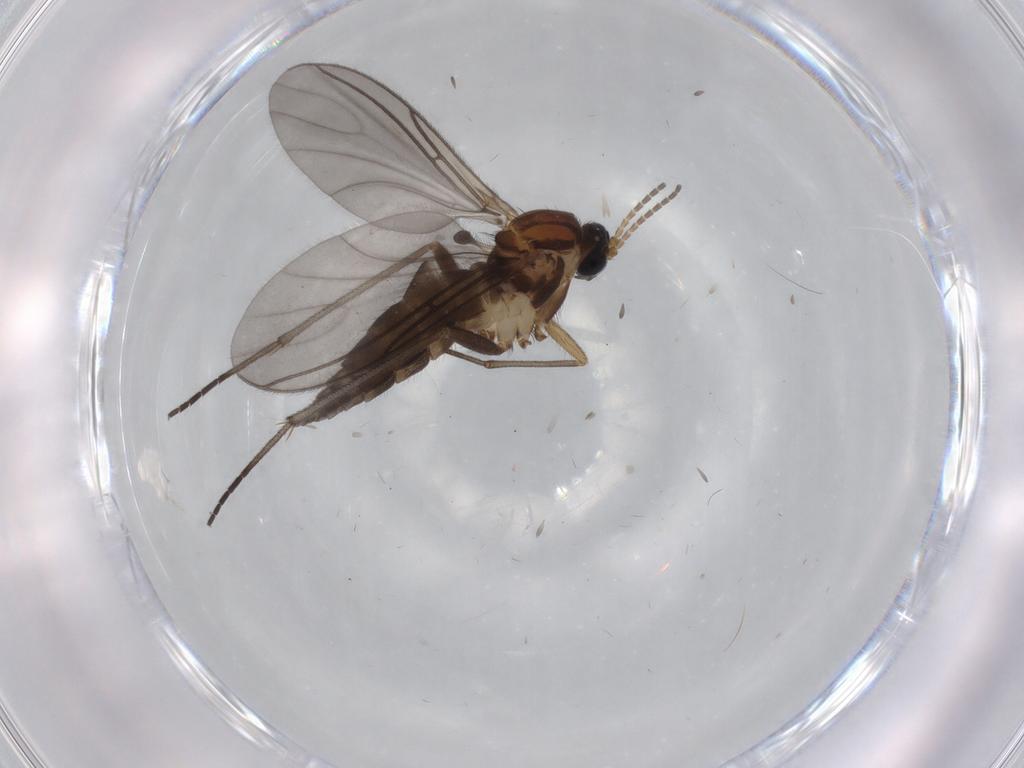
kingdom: Animalia
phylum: Arthropoda
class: Insecta
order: Diptera
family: Sciaridae
